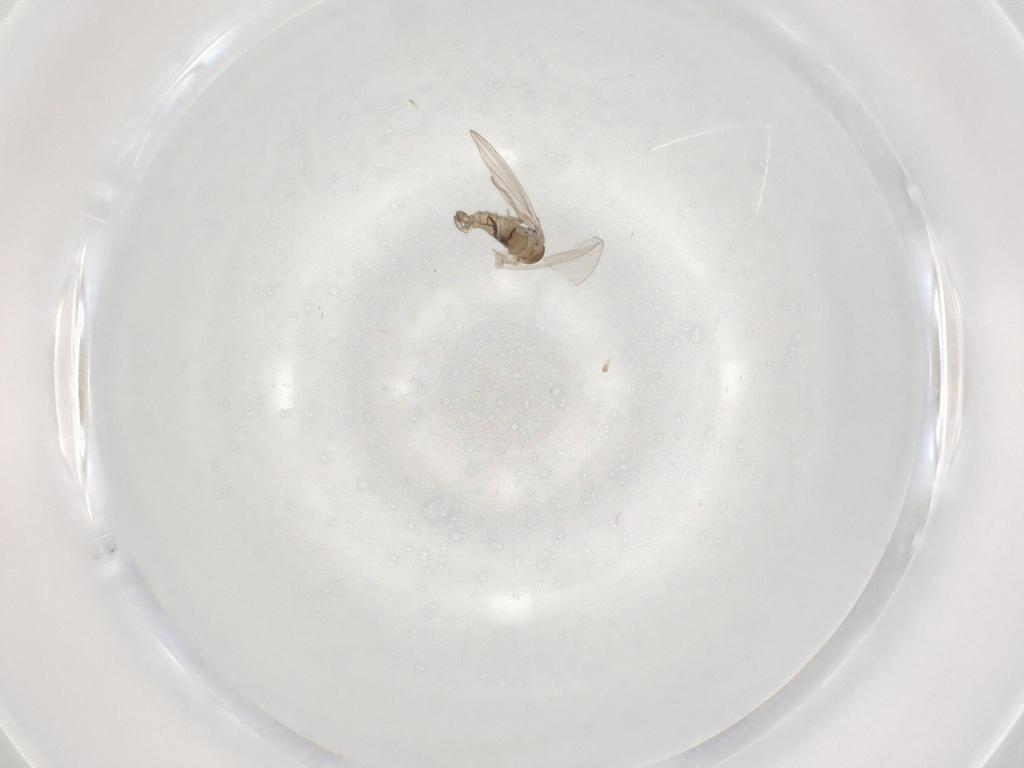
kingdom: Animalia
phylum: Arthropoda
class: Insecta
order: Diptera
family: Psychodidae
